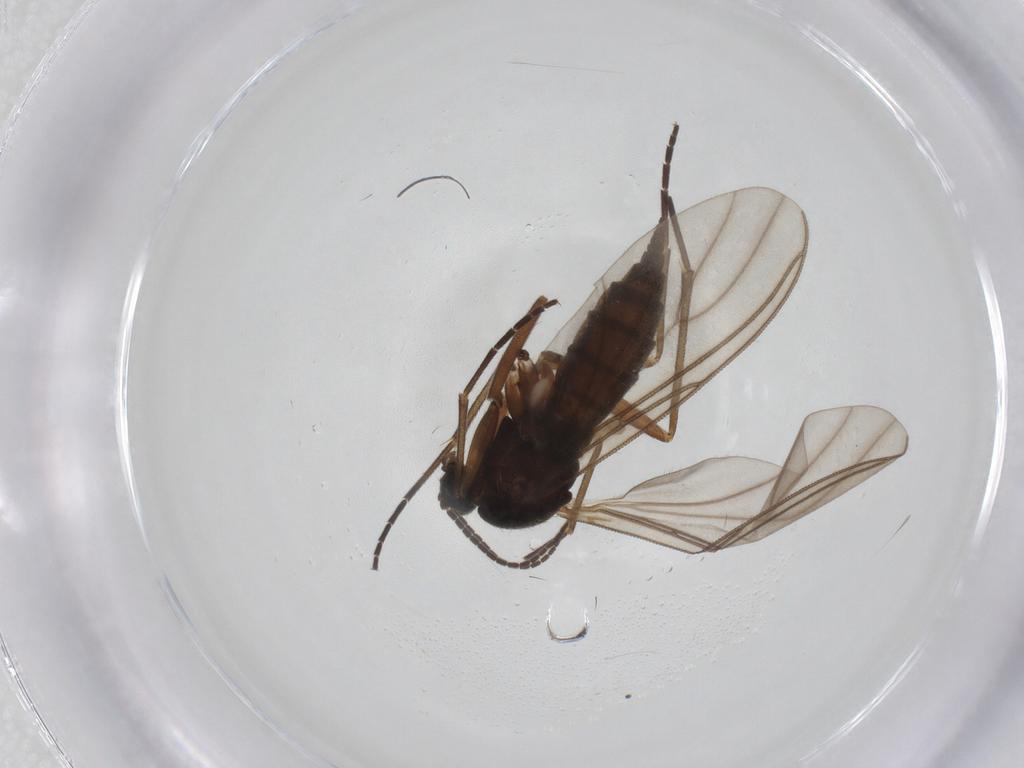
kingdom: Animalia
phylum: Arthropoda
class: Insecta
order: Diptera
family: Sciaridae
